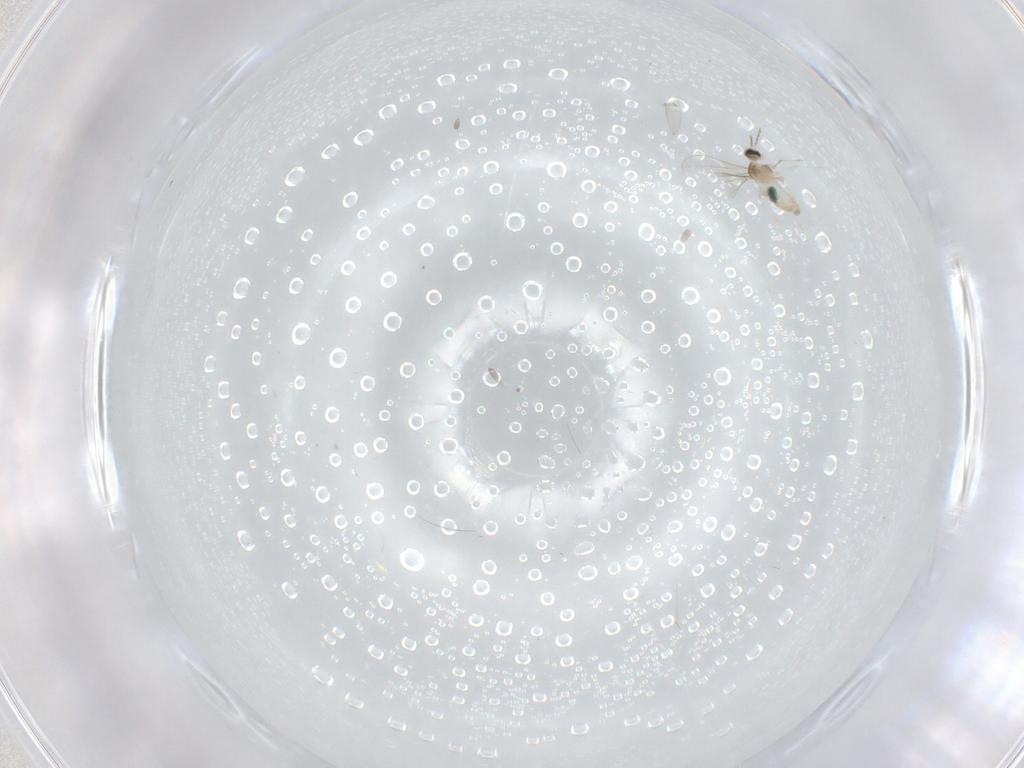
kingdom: Animalia
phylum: Arthropoda
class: Insecta
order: Diptera
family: Cecidomyiidae
